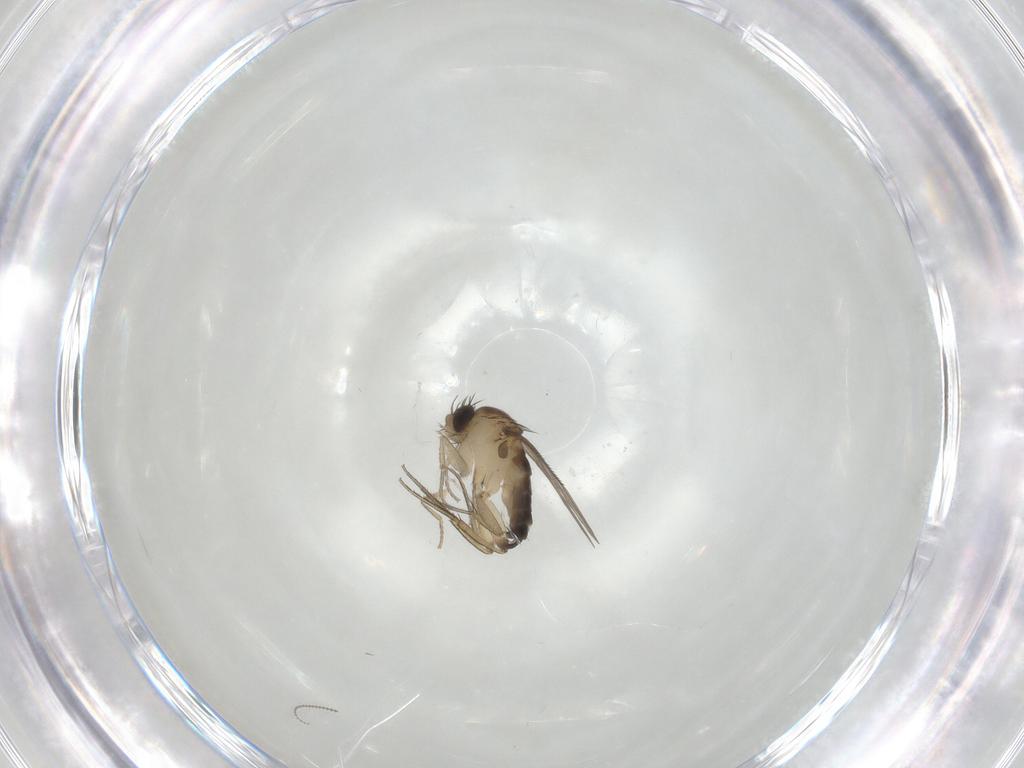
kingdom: Animalia
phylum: Arthropoda
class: Insecta
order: Diptera
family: Phoridae
